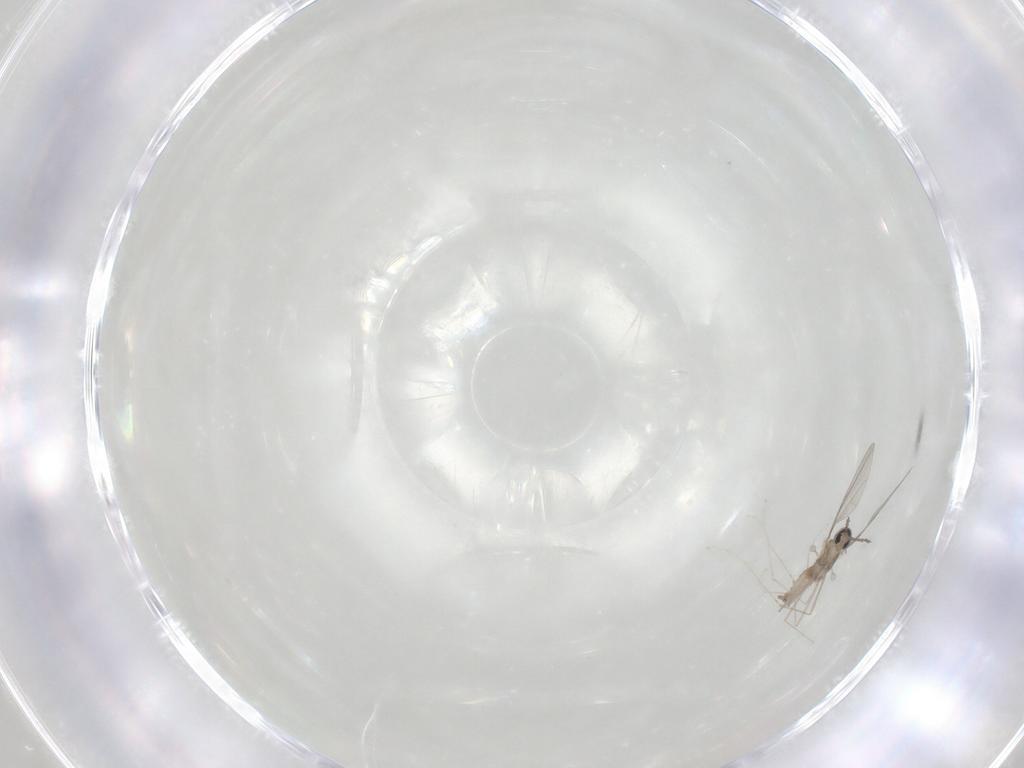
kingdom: Animalia
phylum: Arthropoda
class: Insecta
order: Diptera
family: Cecidomyiidae
